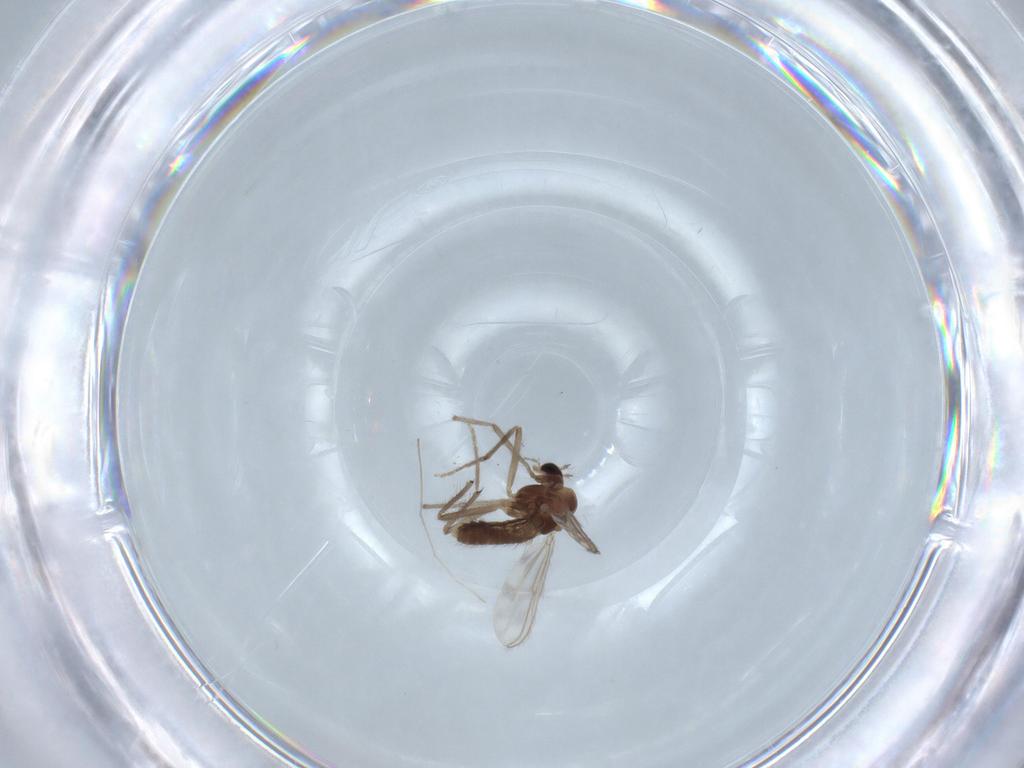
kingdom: Animalia
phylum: Arthropoda
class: Insecta
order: Diptera
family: Chironomidae
